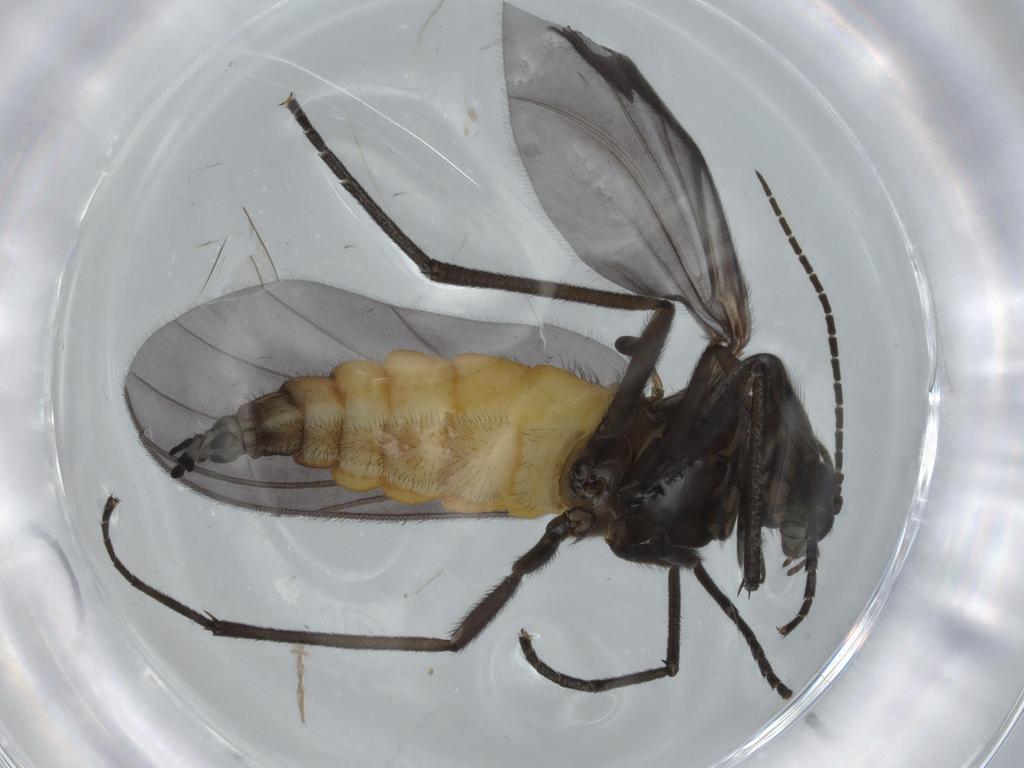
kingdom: Animalia
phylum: Arthropoda
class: Insecta
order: Diptera
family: Cecidomyiidae
